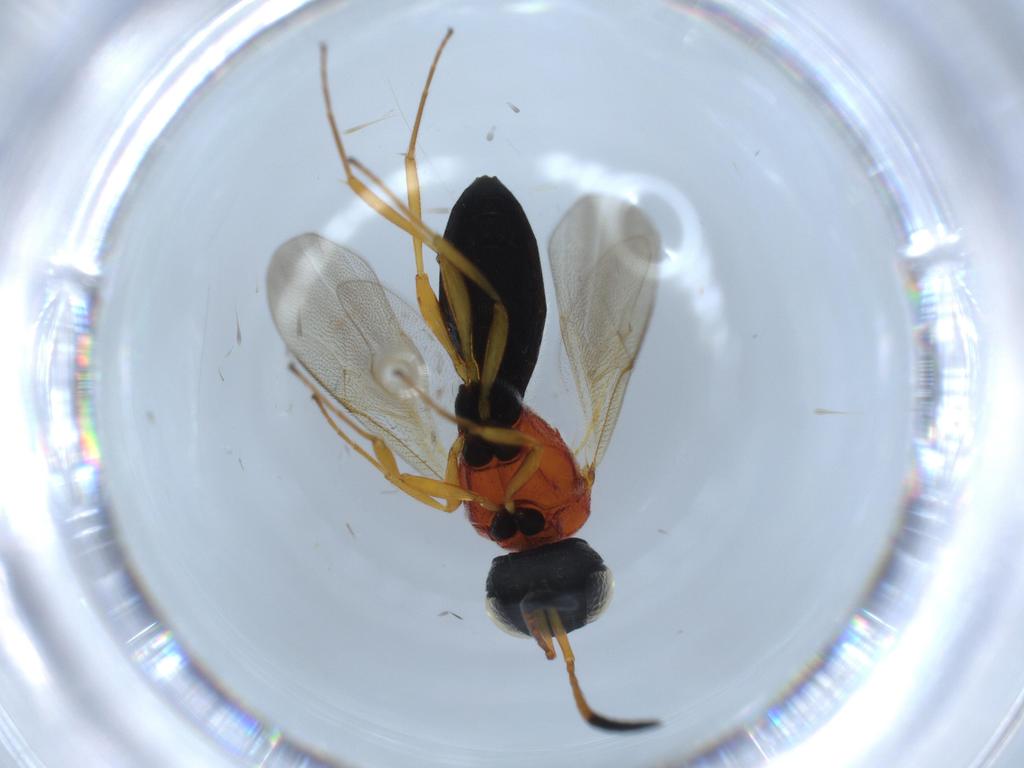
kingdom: Animalia
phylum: Arthropoda
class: Insecta
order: Hymenoptera
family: Scelionidae
